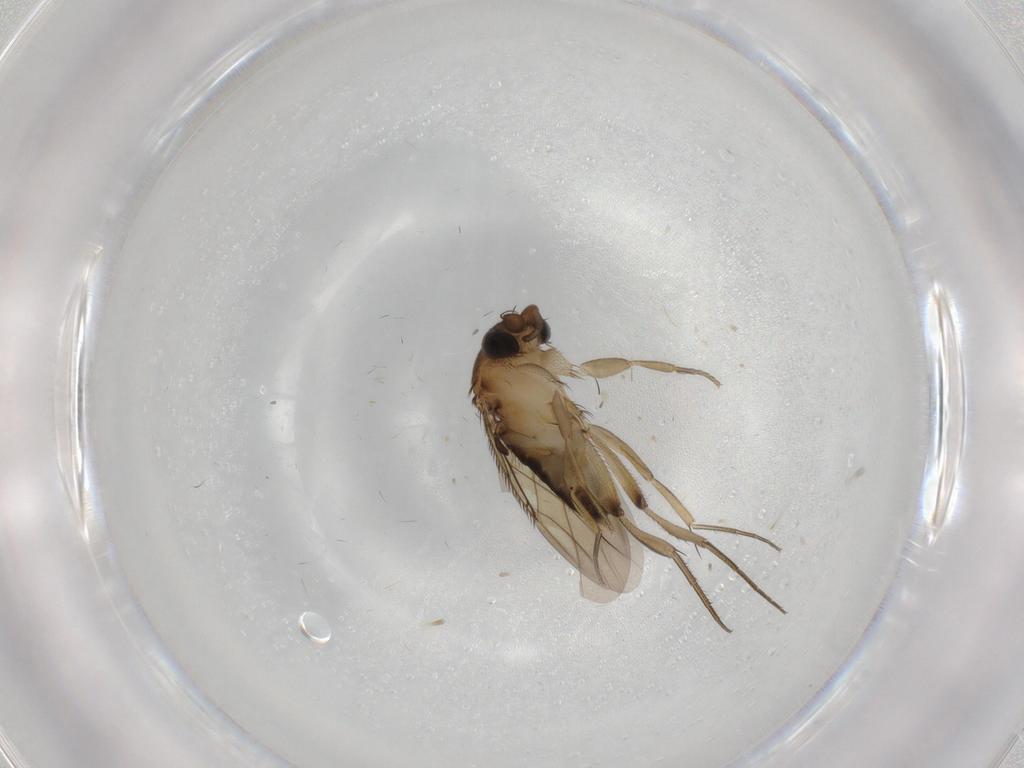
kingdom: Animalia
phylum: Arthropoda
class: Insecta
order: Diptera
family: Phoridae
